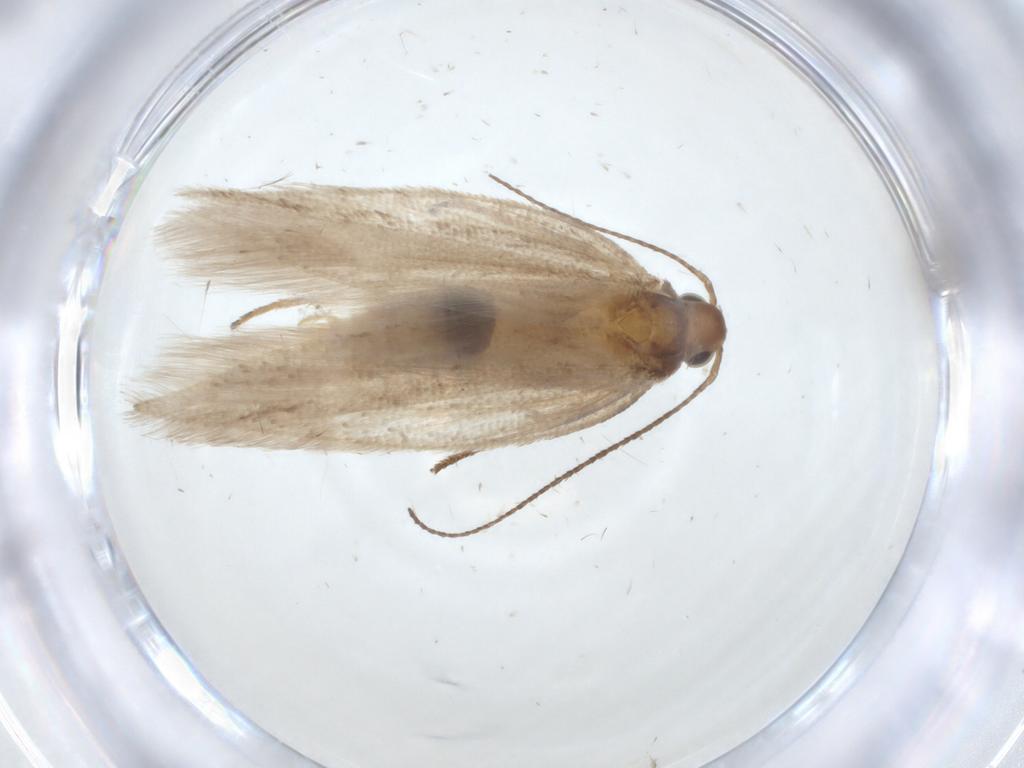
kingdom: Animalia
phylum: Arthropoda
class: Insecta
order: Lepidoptera
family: Gelechiidae
